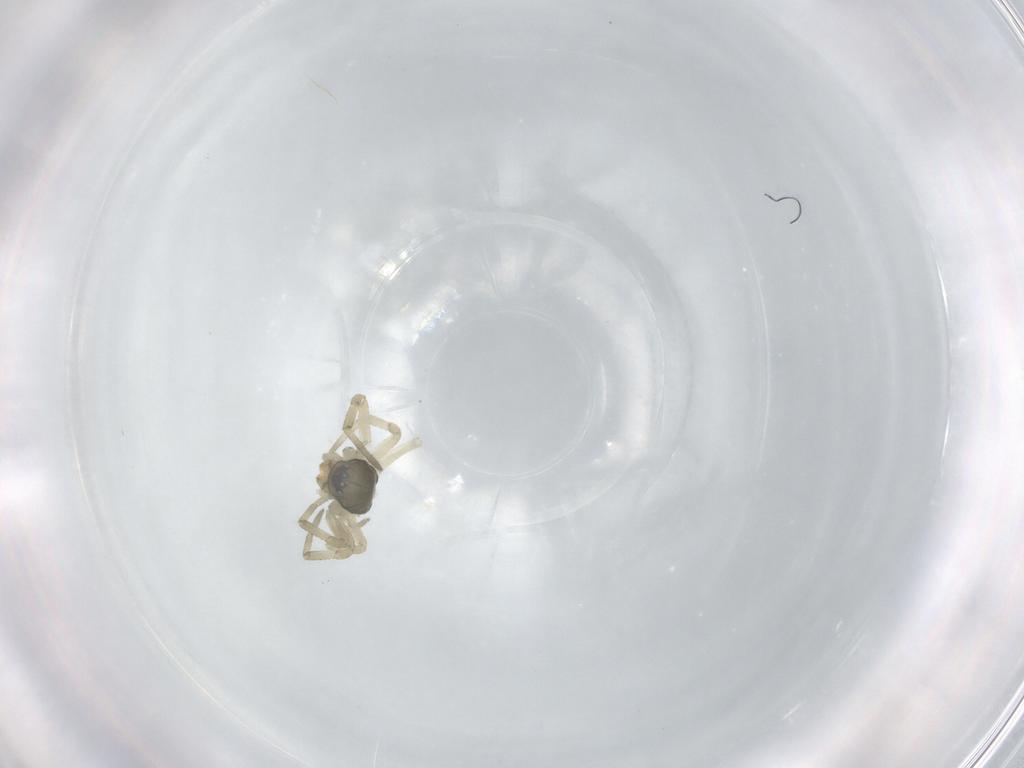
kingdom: Animalia
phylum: Arthropoda
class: Arachnida
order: Araneae
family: Linyphiidae
